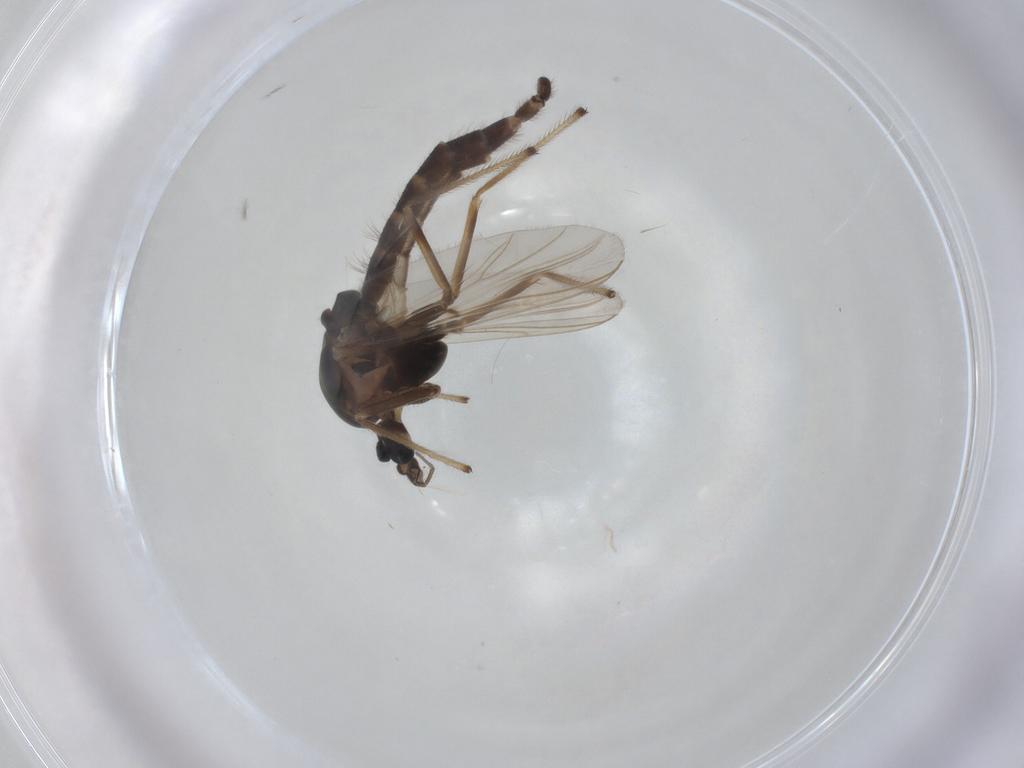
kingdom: Animalia
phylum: Arthropoda
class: Insecta
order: Diptera
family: Chironomidae
